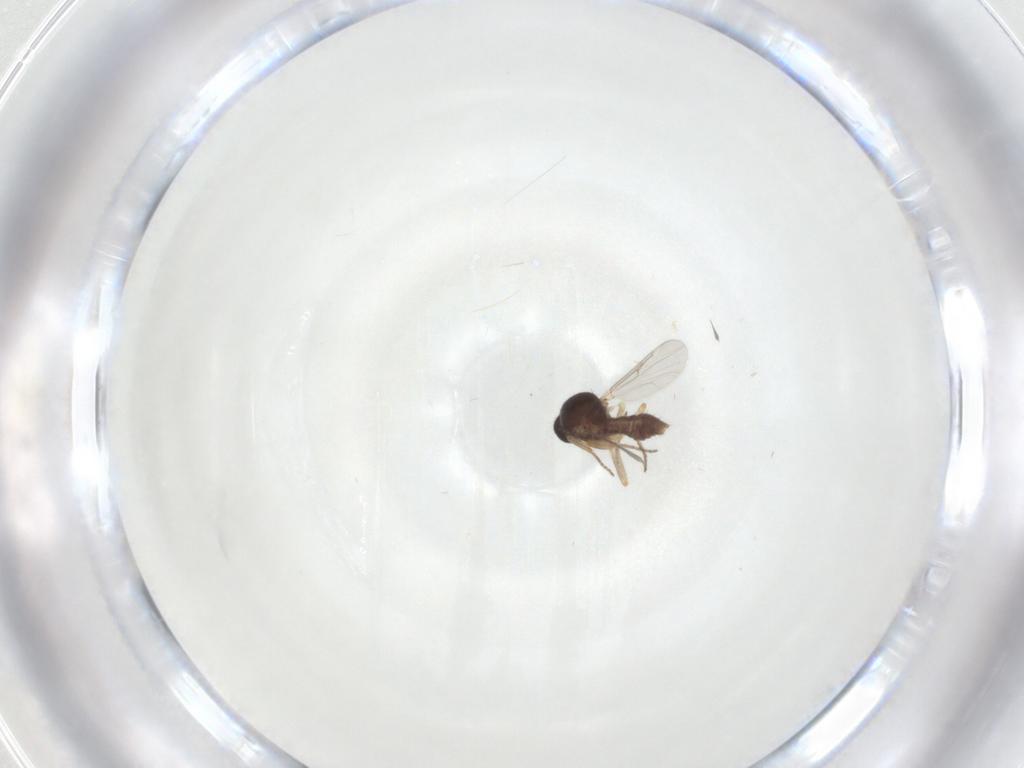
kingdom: Animalia
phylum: Arthropoda
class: Insecta
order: Diptera
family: Ceratopogonidae
